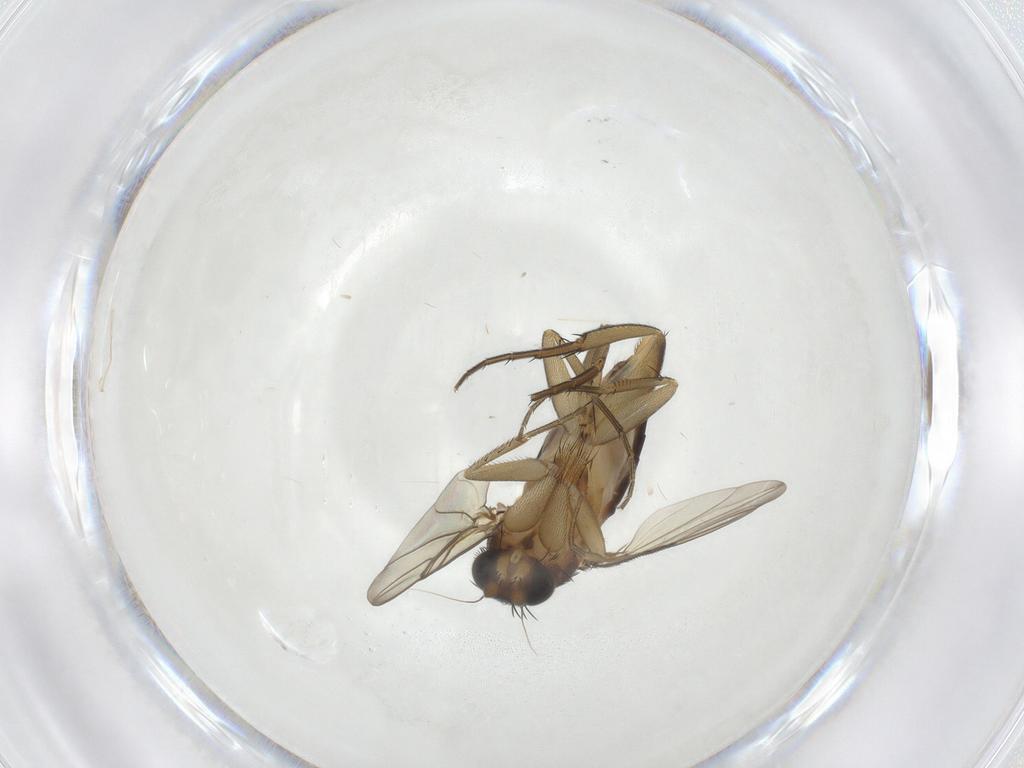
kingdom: Animalia
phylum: Arthropoda
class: Insecta
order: Diptera
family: Phoridae
